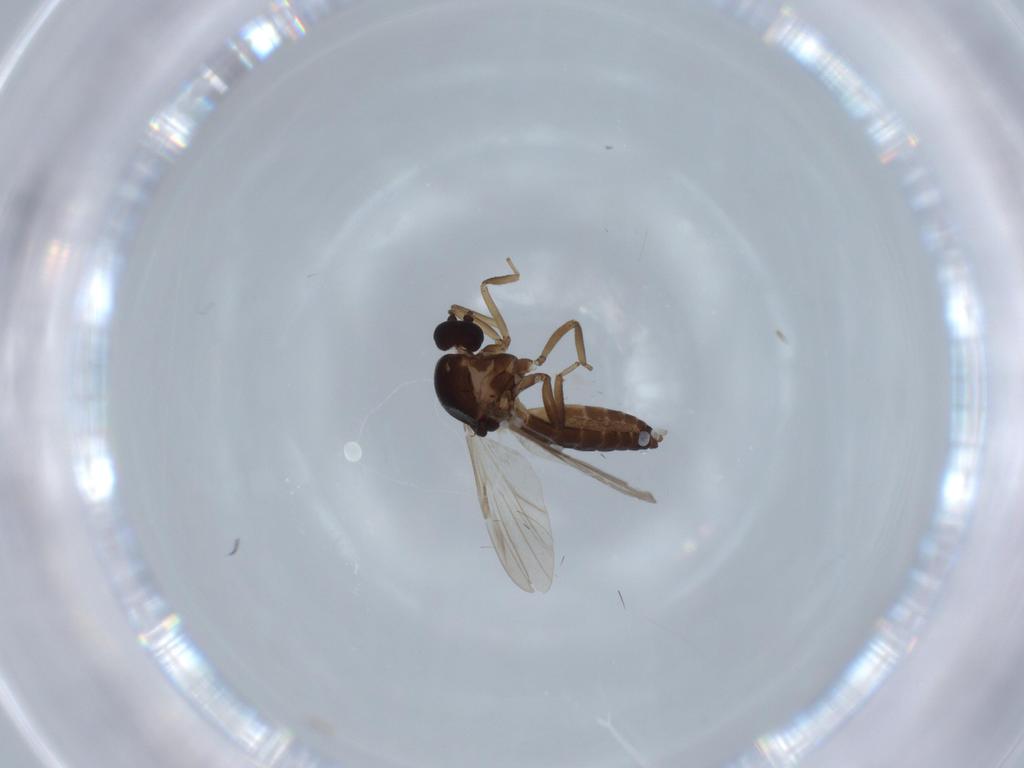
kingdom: Animalia
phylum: Arthropoda
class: Insecta
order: Diptera
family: Ceratopogonidae
